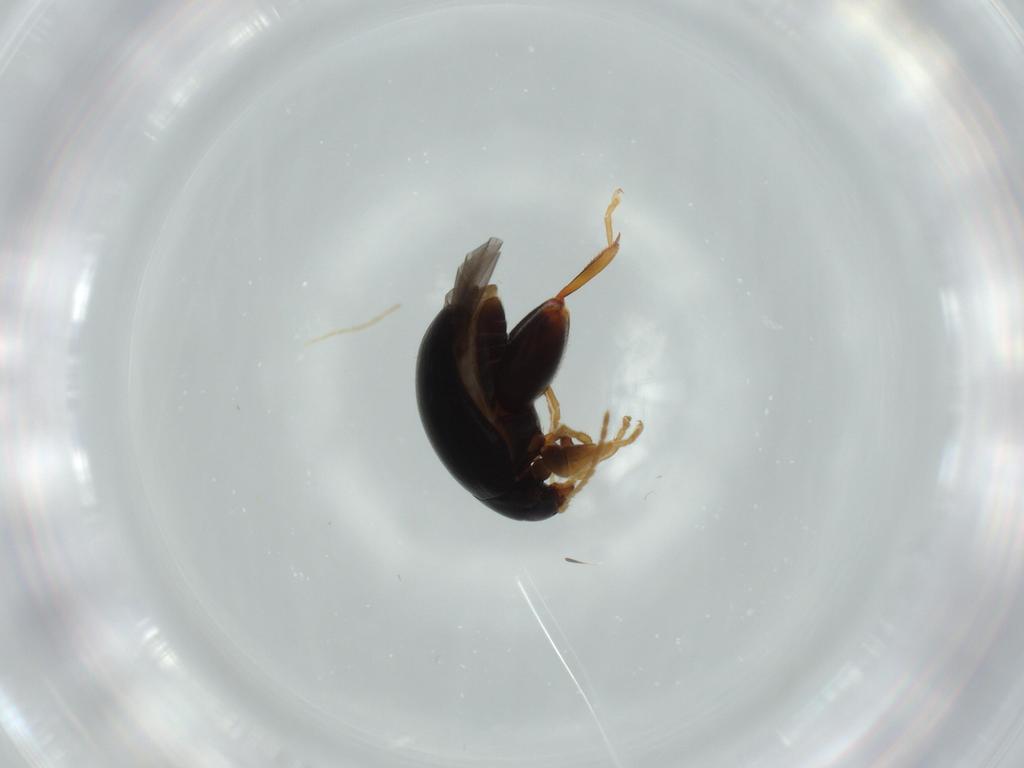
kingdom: Animalia
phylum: Arthropoda
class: Insecta
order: Coleoptera
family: Chrysomelidae
